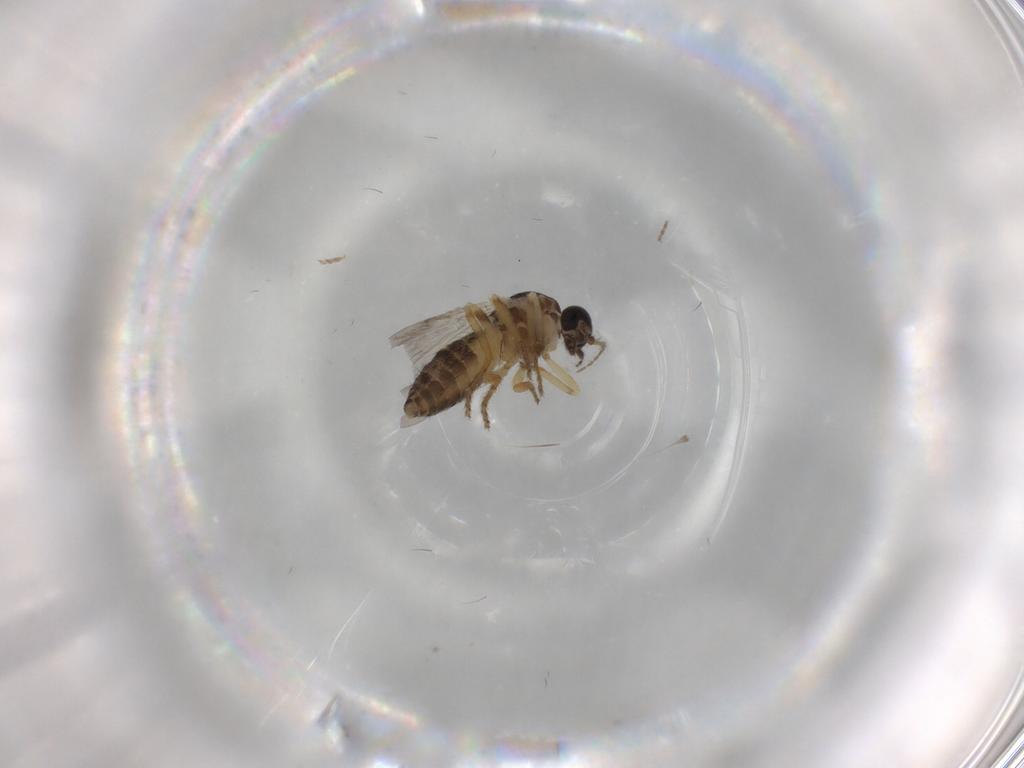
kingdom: Animalia
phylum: Arthropoda
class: Insecta
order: Diptera
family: Ceratopogonidae
